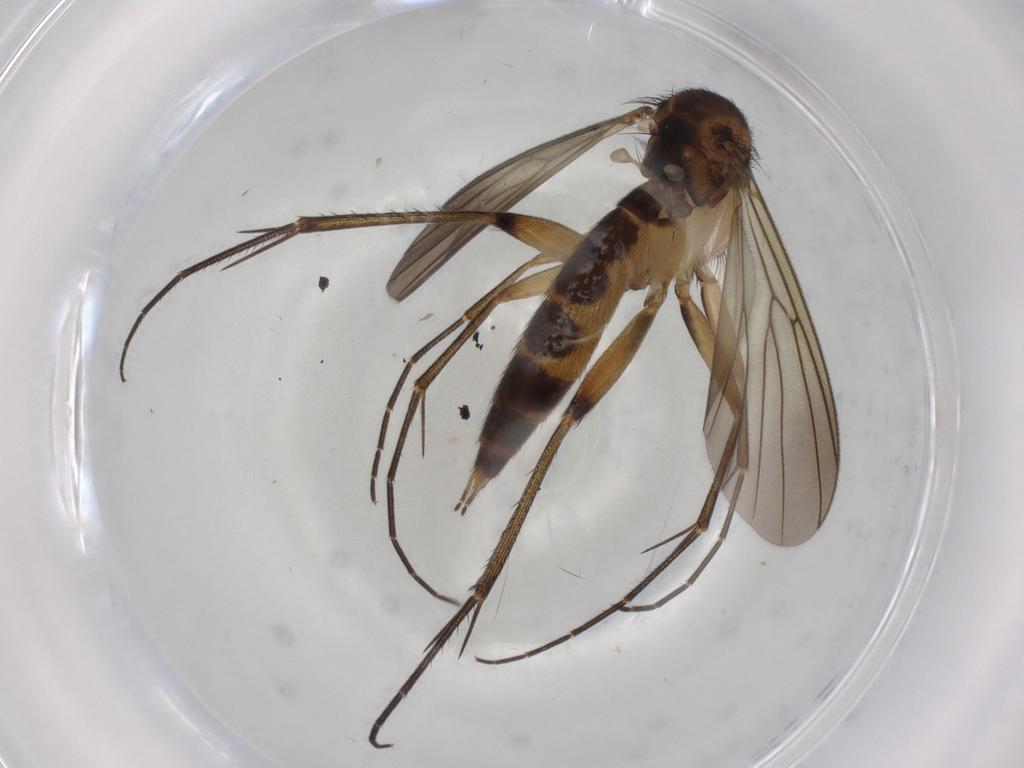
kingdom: Animalia
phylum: Arthropoda
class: Insecta
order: Diptera
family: Mycetophilidae
